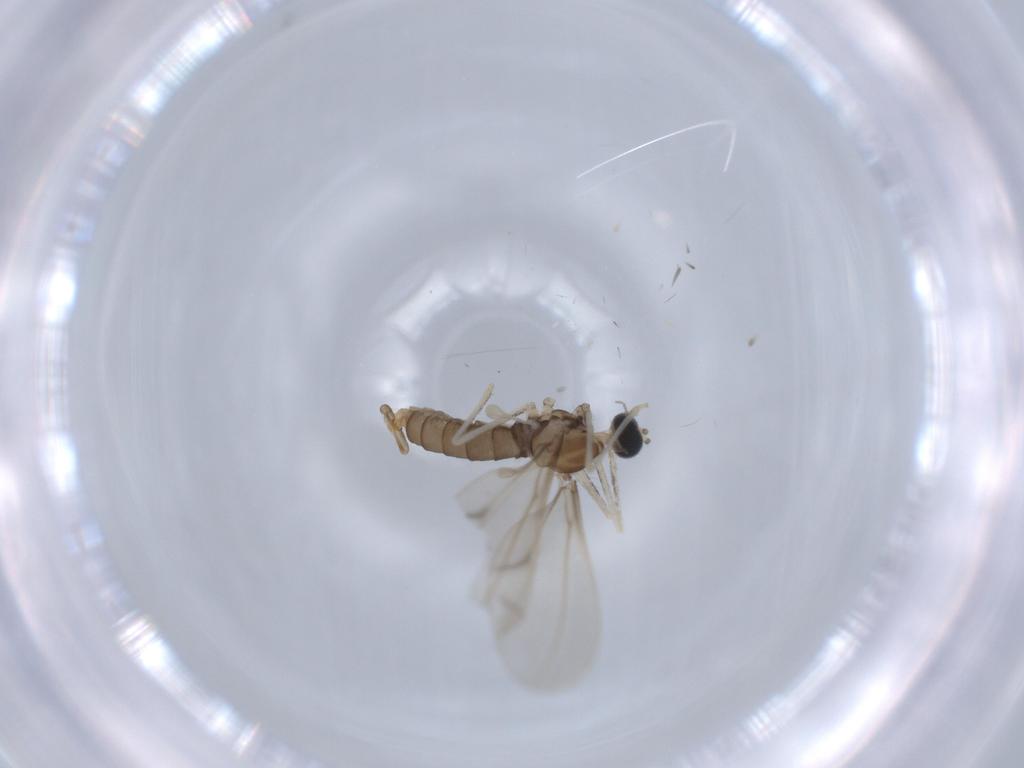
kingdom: Animalia
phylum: Arthropoda
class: Insecta
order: Diptera
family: Cecidomyiidae
